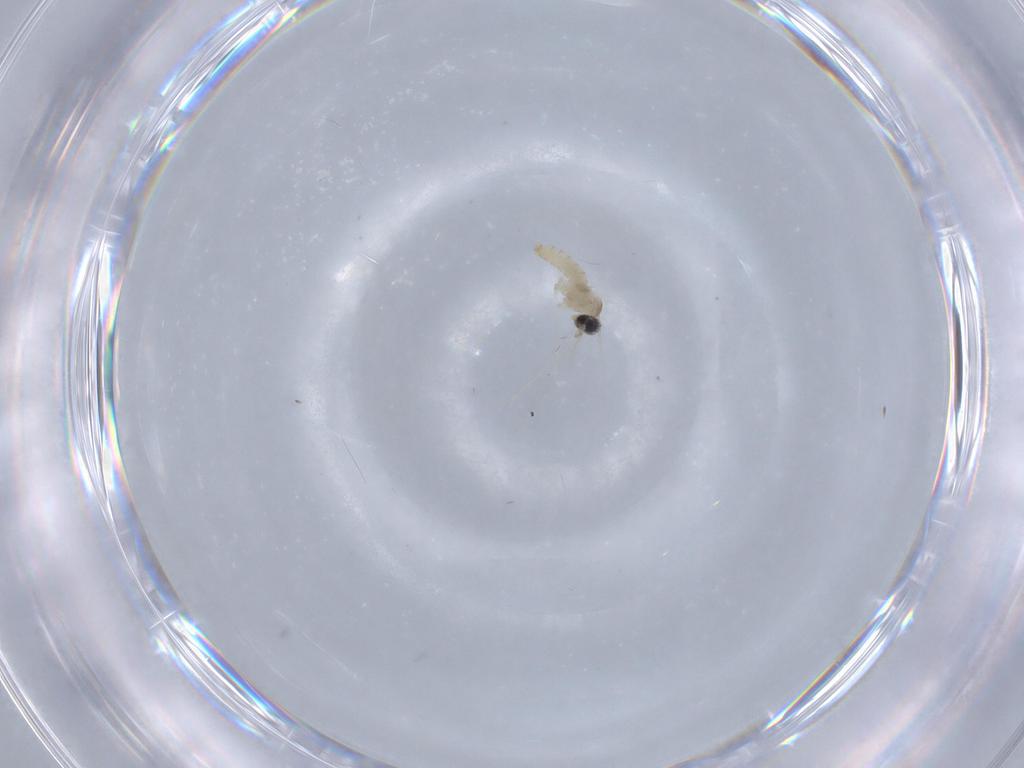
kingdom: Animalia
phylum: Arthropoda
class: Insecta
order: Diptera
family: Cecidomyiidae
